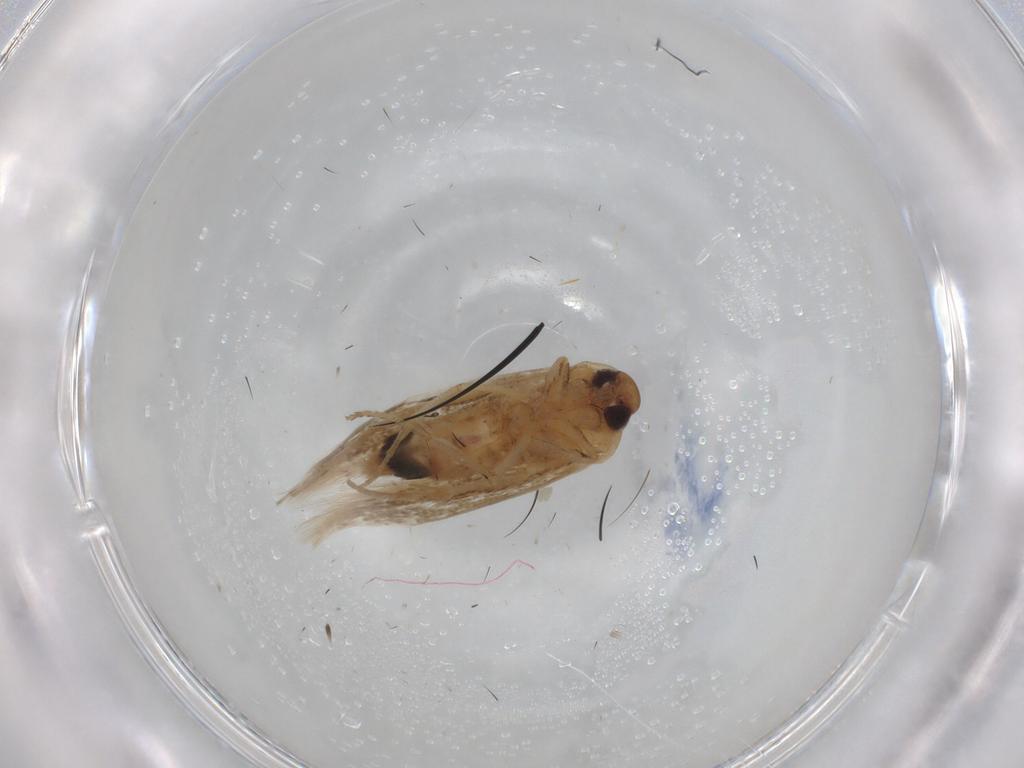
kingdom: Animalia
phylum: Arthropoda
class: Insecta
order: Lepidoptera
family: Scythrididae
